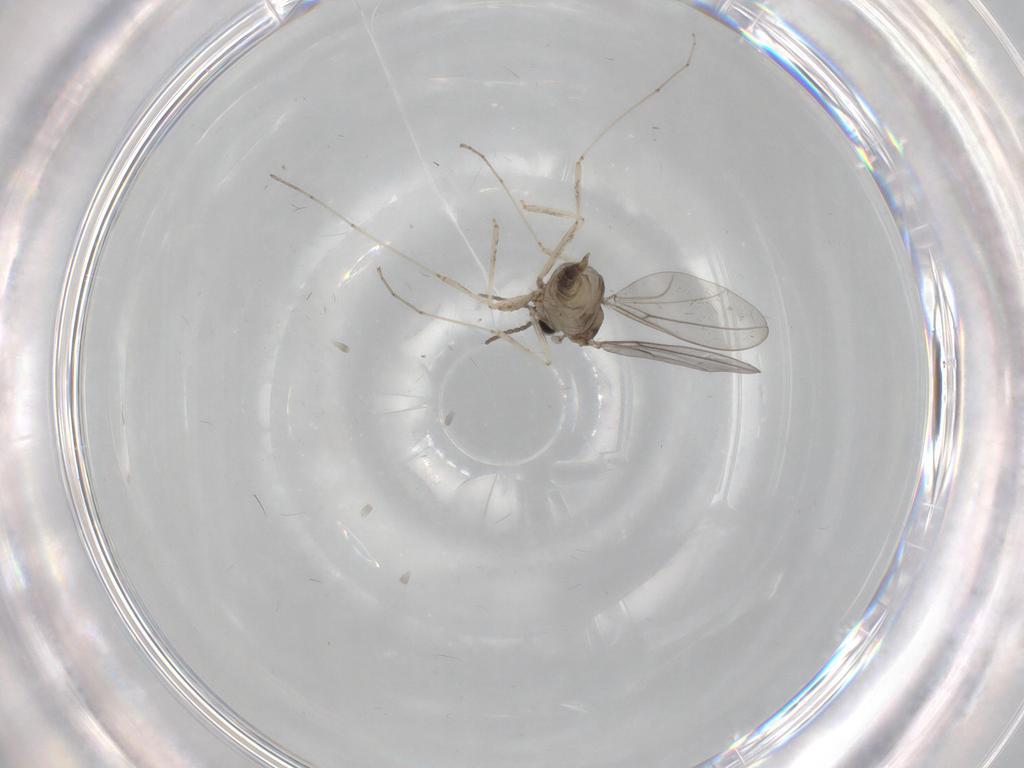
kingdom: Animalia
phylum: Arthropoda
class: Insecta
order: Diptera
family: Cecidomyiidae
